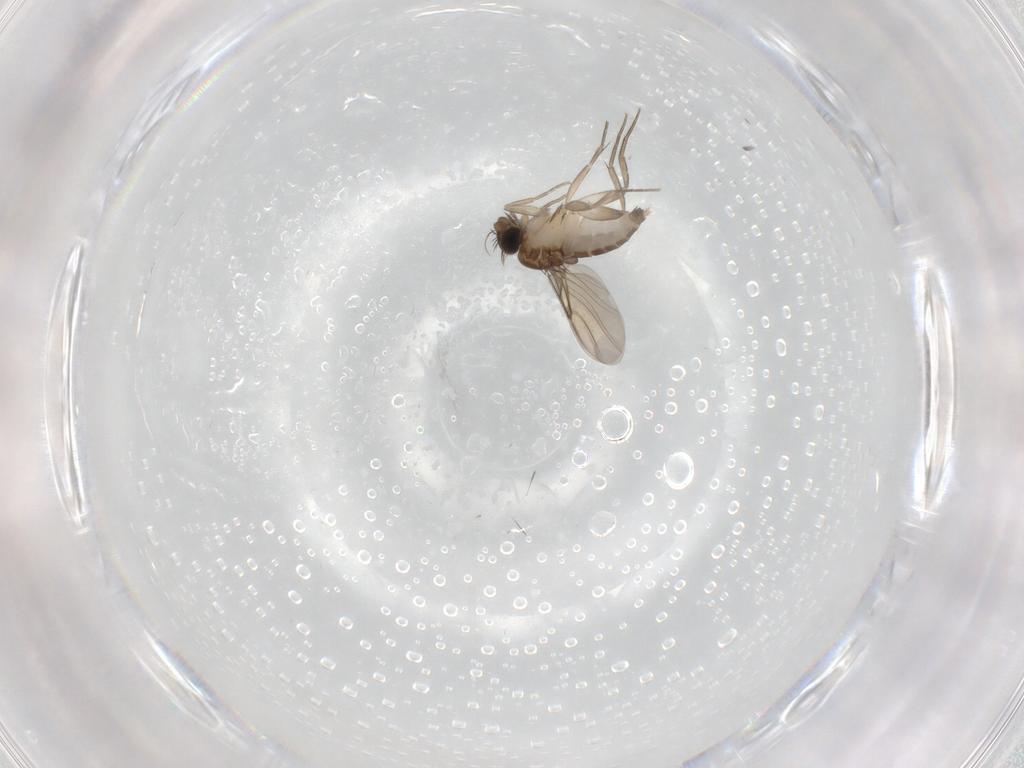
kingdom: Animalia
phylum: Arthropoda
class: Insecta
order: Diptera
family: Phoridae
